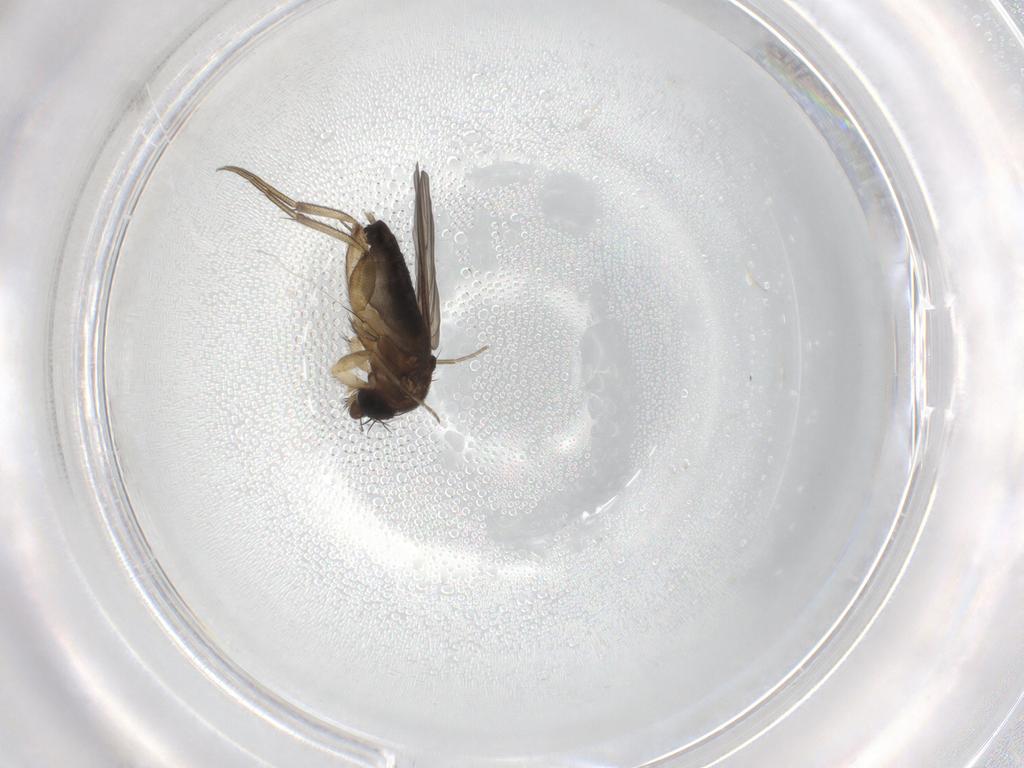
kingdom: Animalia
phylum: Arthropoda
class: Insecta
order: Diptera
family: Phoridae
